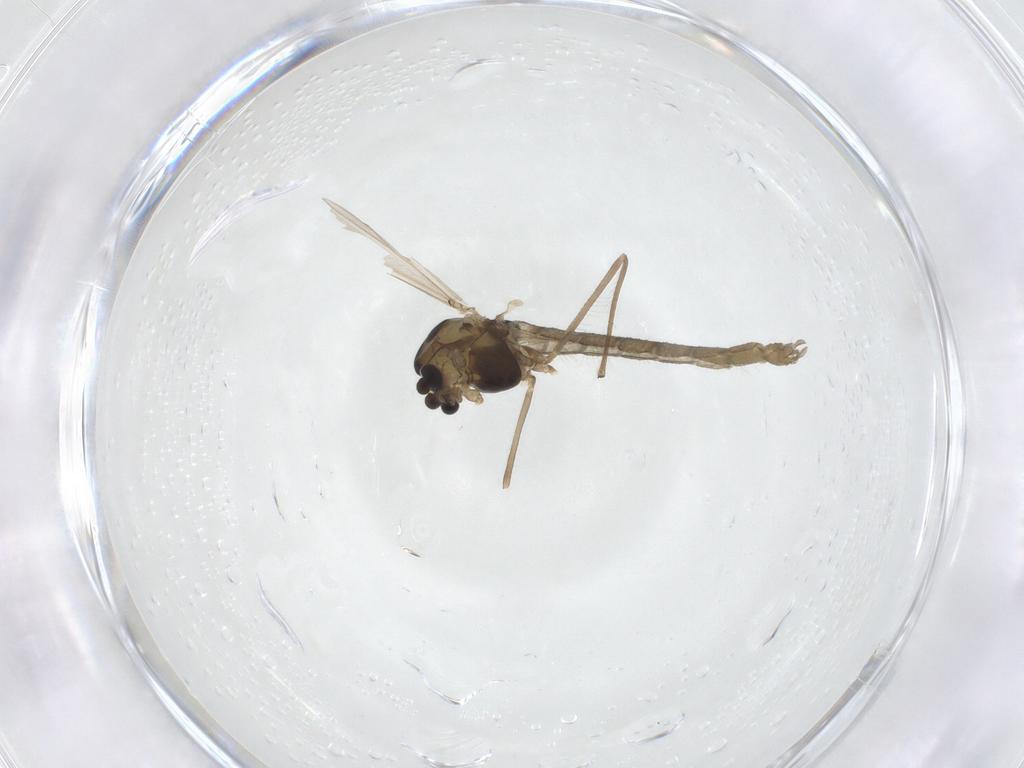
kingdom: Animalia
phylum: Arthropoda
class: Insecta
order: Diptera
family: Chironomidae
